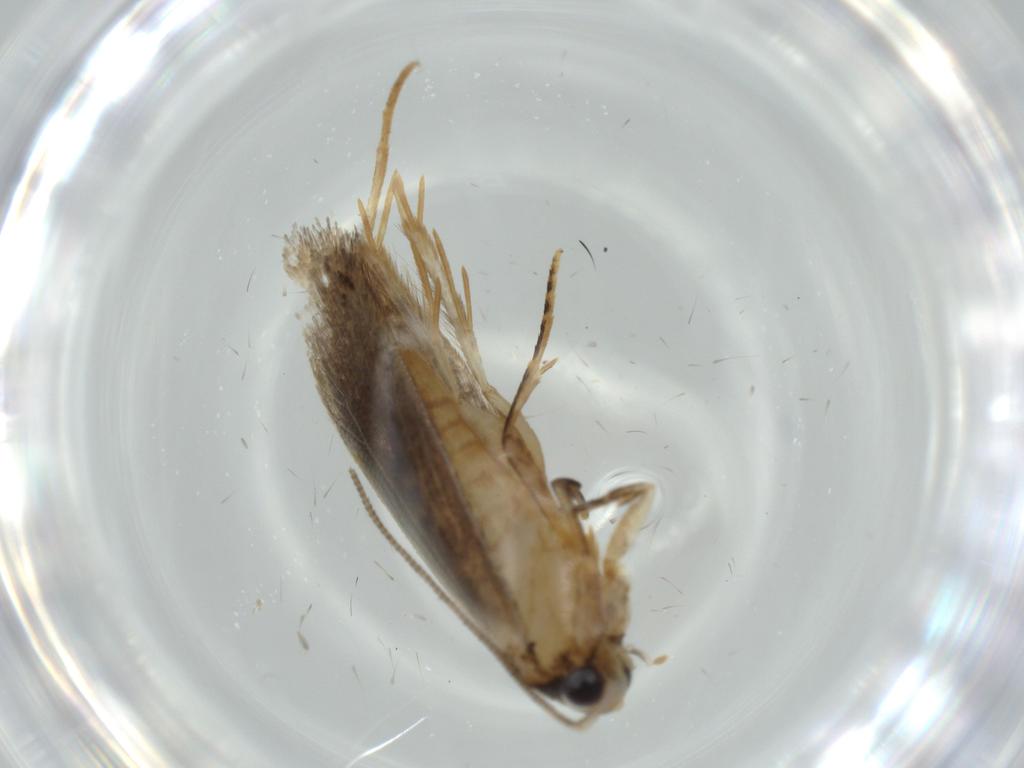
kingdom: Animalia
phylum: Arthropoda
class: Insecta
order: Lepidoptera
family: Tineidae
